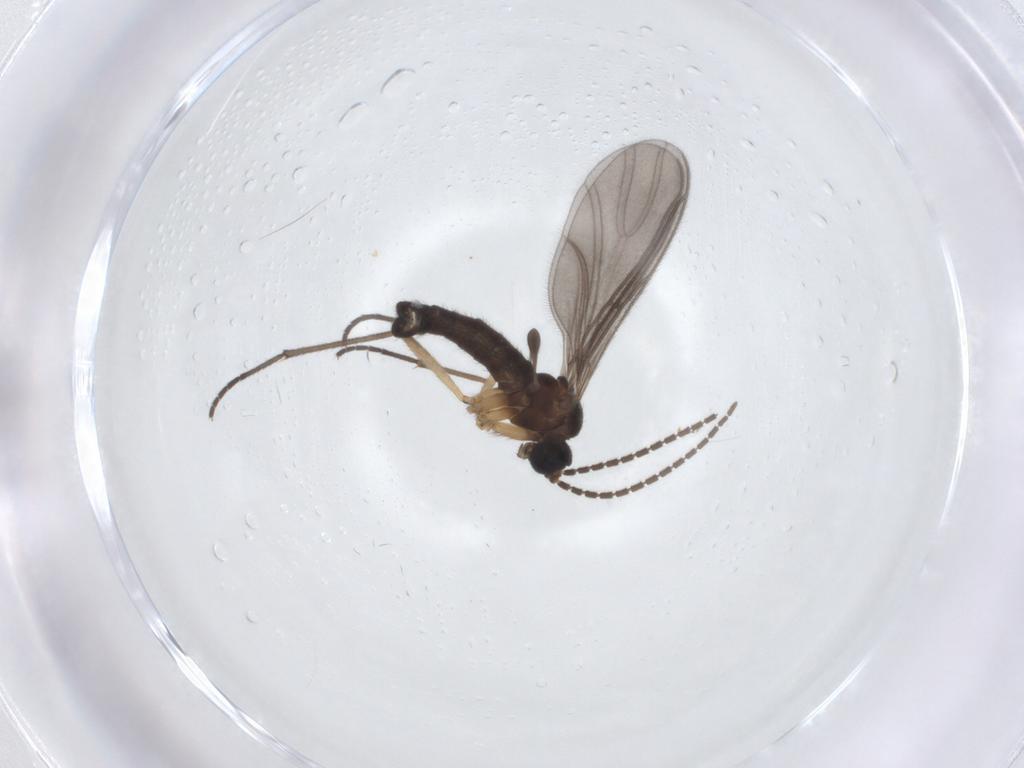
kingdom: Animalia
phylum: Arthropoda
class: Insecta
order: Diptera
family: Sciaridae
